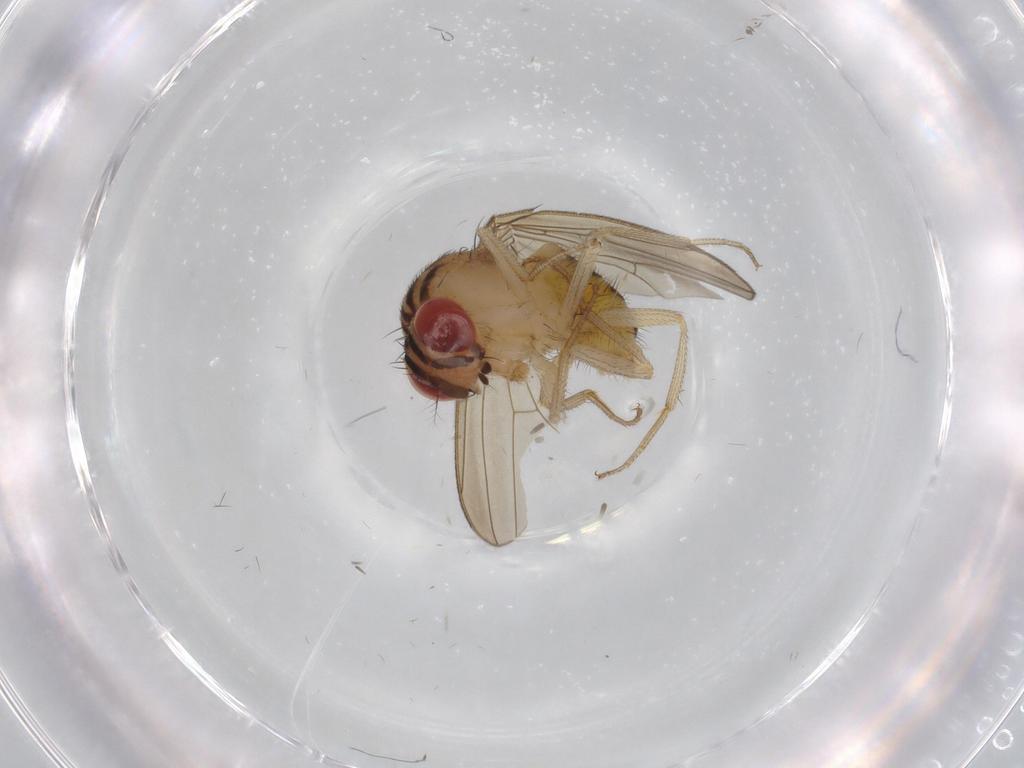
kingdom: Animalia
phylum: Arthropoda
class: Insecta
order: Diptera
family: Drosophilidae
